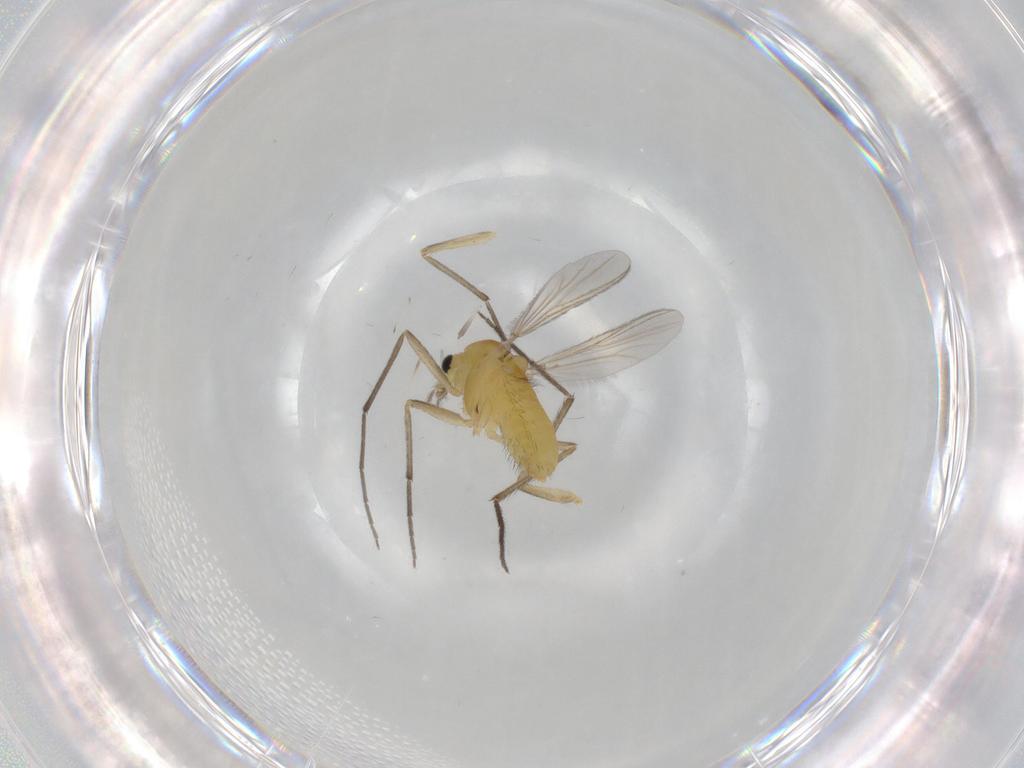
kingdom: Animalia
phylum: Arthropoda
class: Insecta
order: Diptera
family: Chironomidae
